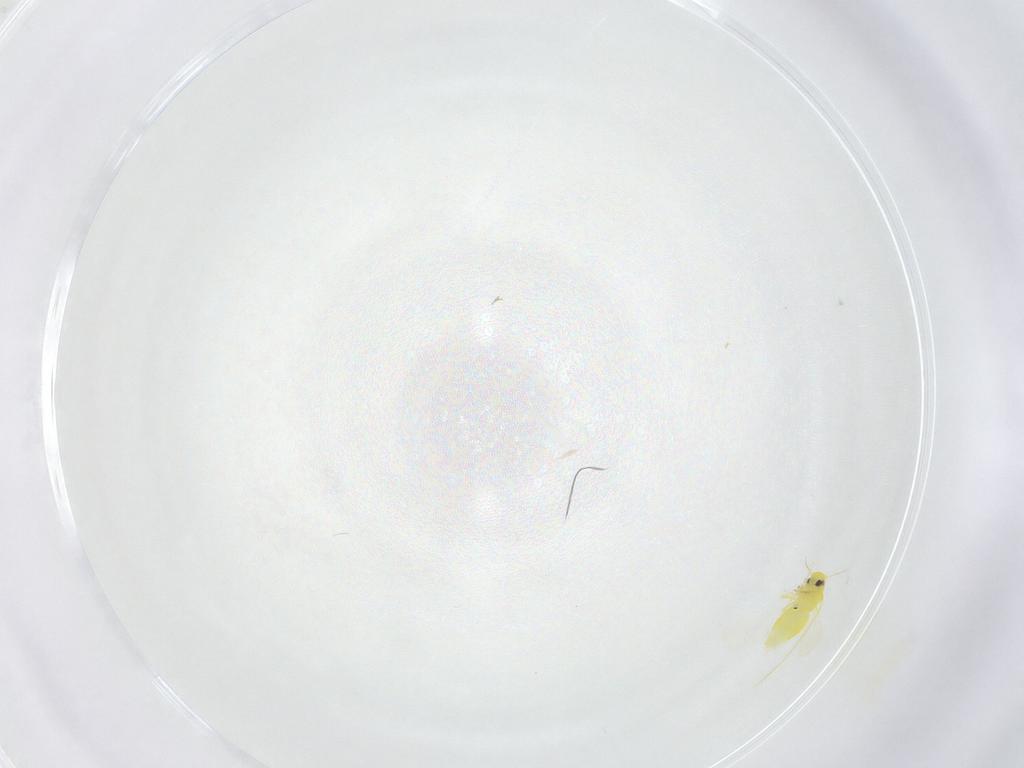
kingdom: Animalia
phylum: Arthropoda
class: Insecta
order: Hemiptera
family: Aleyrodidae
